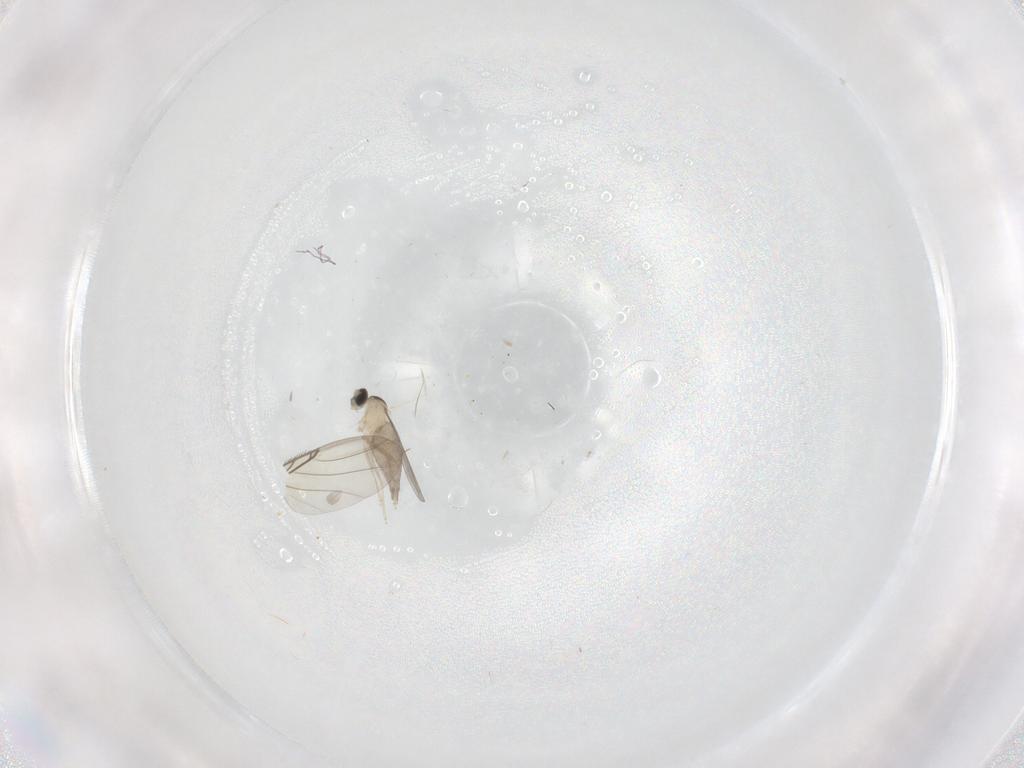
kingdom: Animalia
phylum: Arthropoda
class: Insecta
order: Diptera
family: Cecidomyiidae
